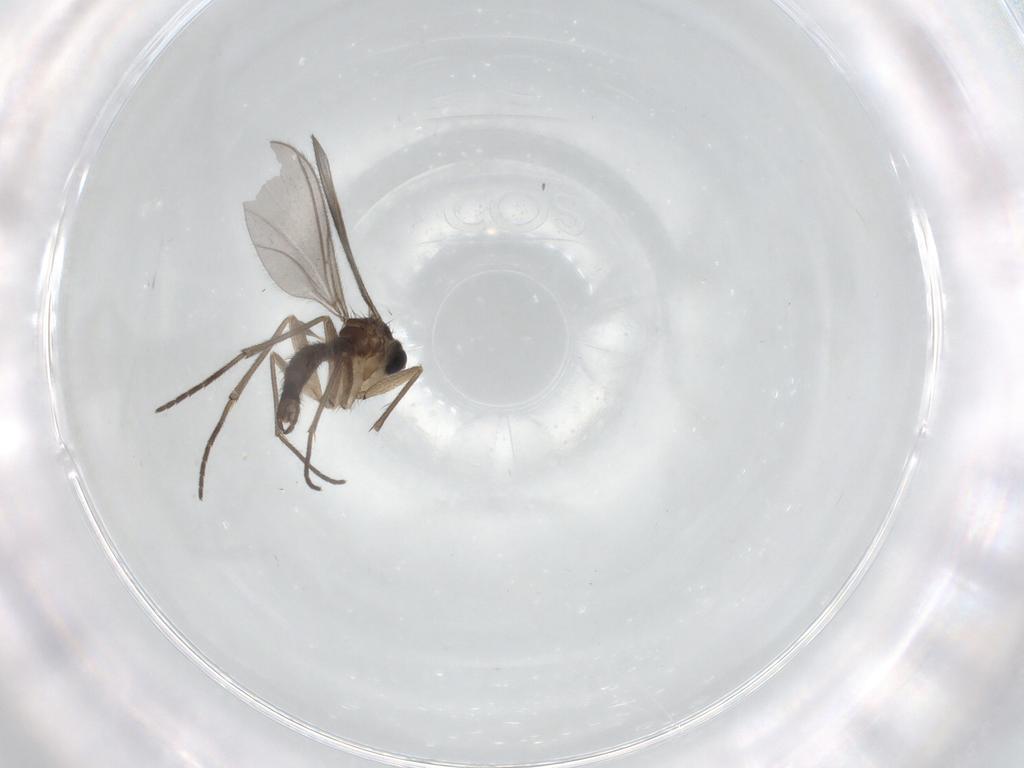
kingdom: Animalia
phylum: Arthropoda
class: Insecta
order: Diptera
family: Sciaridae
